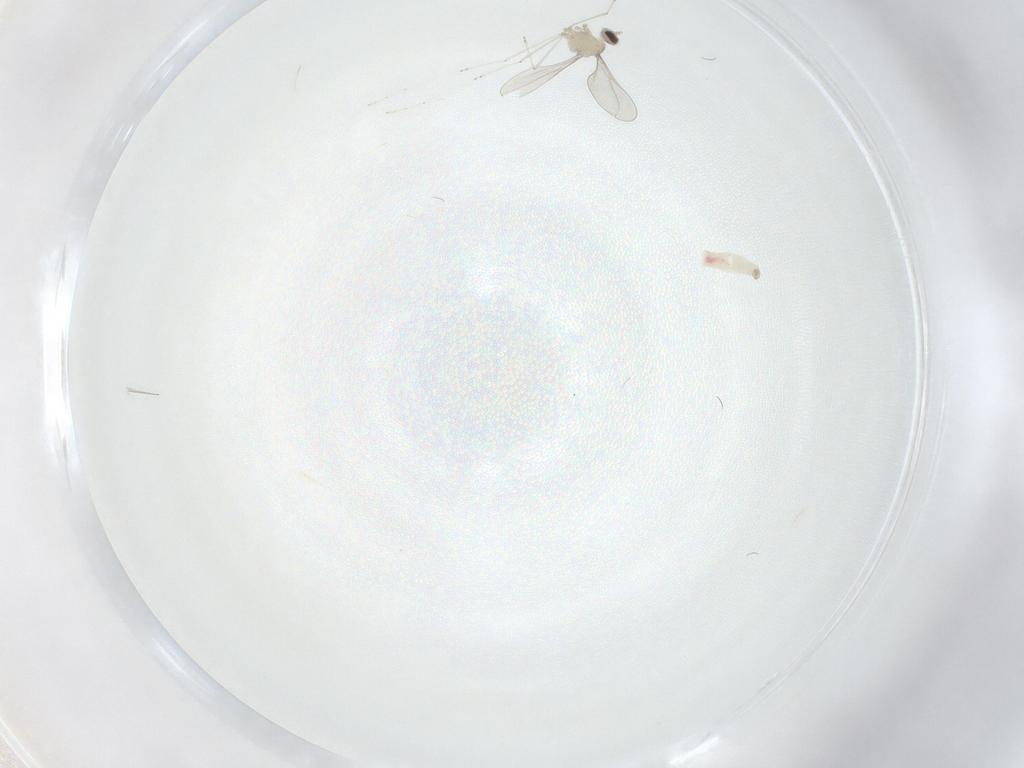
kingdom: Animalia
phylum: Arthropoda
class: Insecta
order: Diptera
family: Cecidomyiidae
